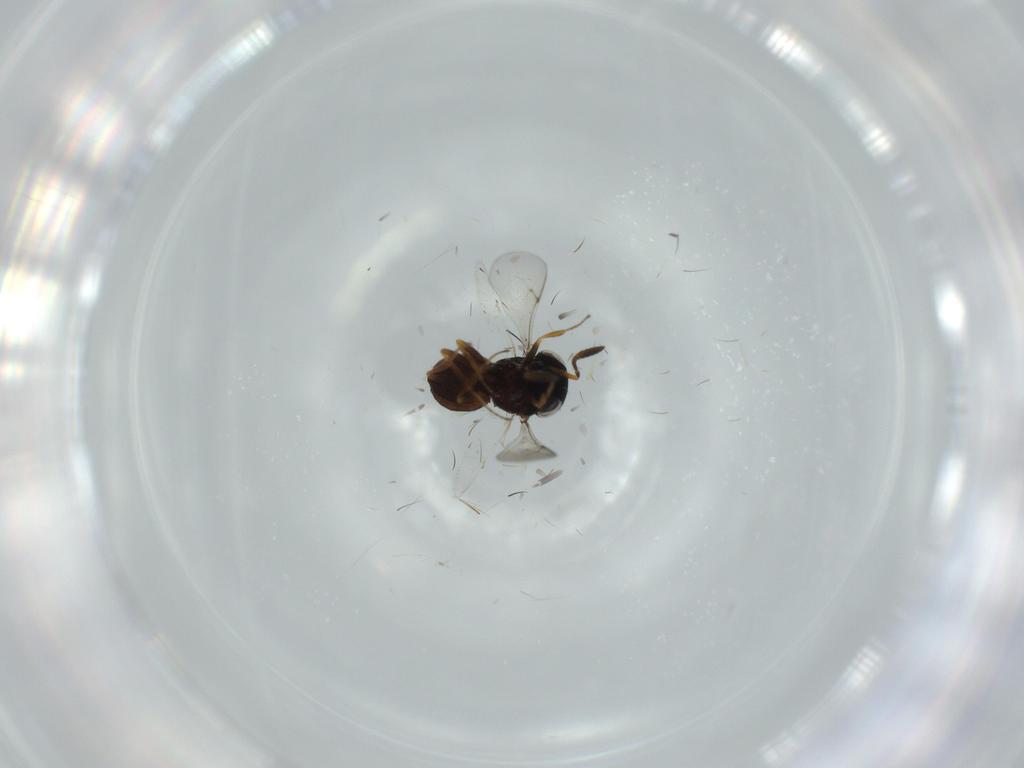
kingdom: Animalia
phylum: Arthropoda
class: Insecta
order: Hymenoptera
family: Scelionidae
